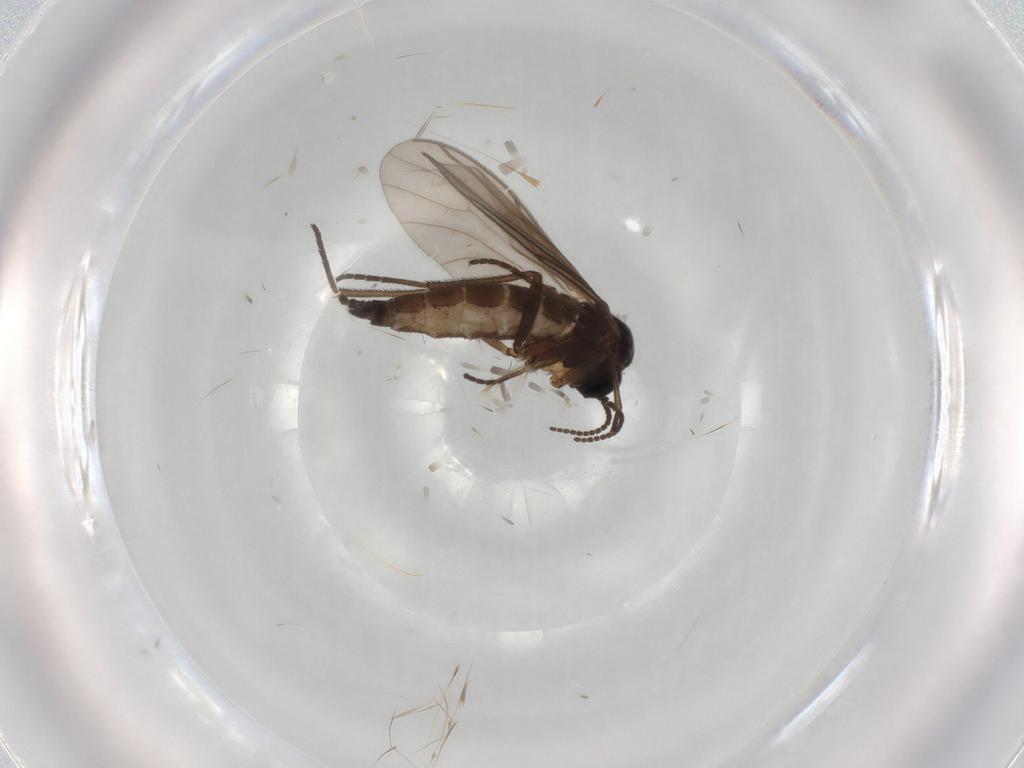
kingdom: Animalia
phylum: Arthropoda
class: Insecta
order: Diptera
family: Sciaridae
